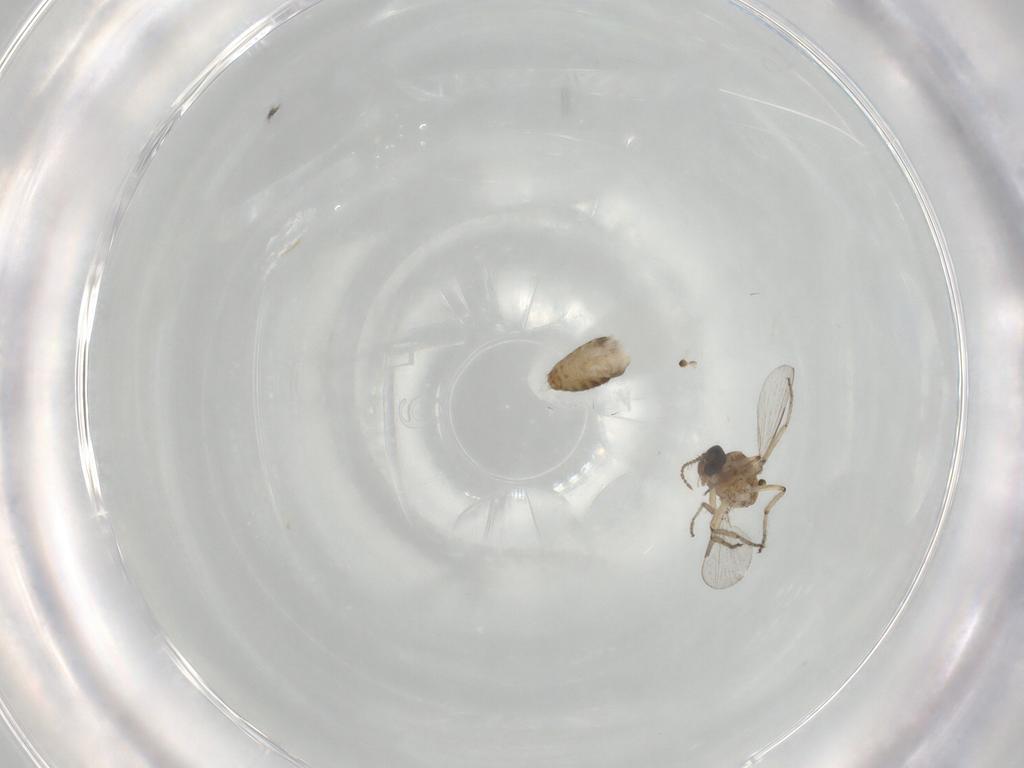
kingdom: Animalia
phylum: Arthropoda
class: Insecta
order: Diptera
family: Ceratopogonidae
